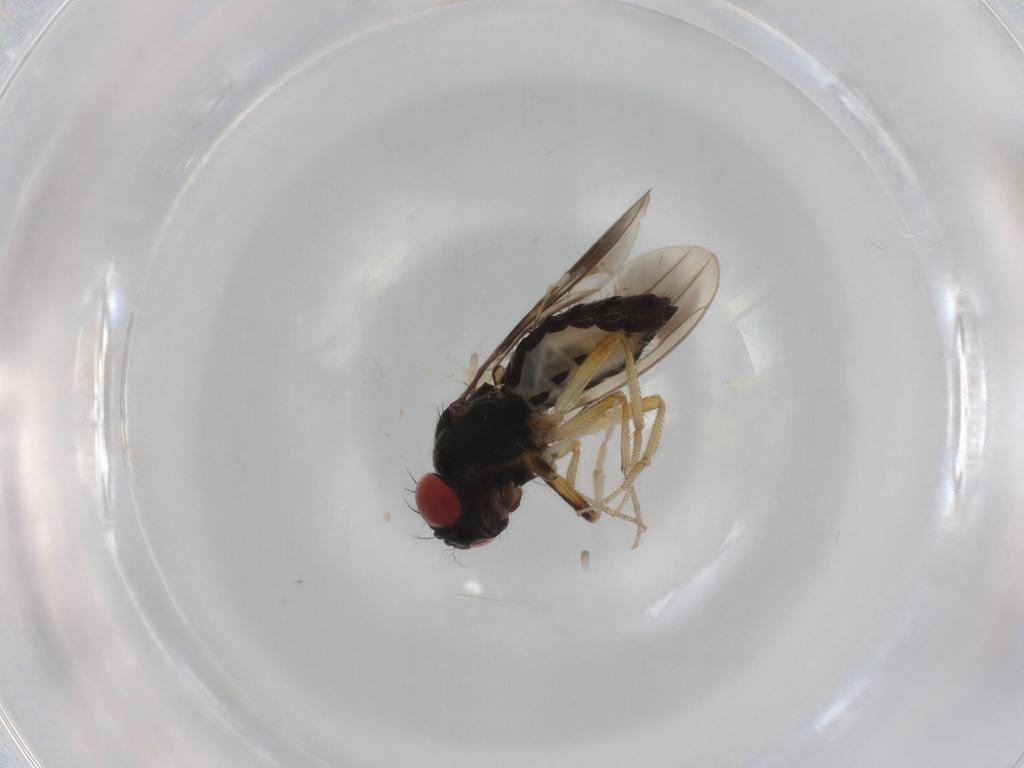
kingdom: Animalia
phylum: Arthropoda
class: Insecta
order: Diptera
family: Drosophilidae
